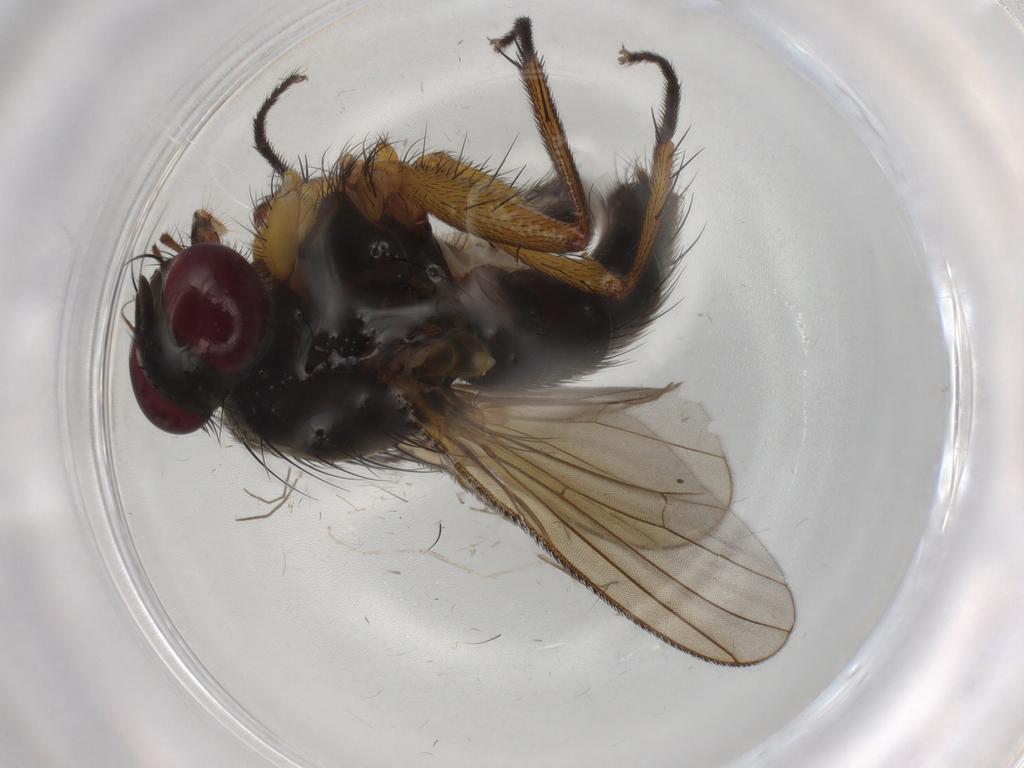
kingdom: Animalia
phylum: Arthropoda
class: Insecta
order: Diptera
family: Muscidae
